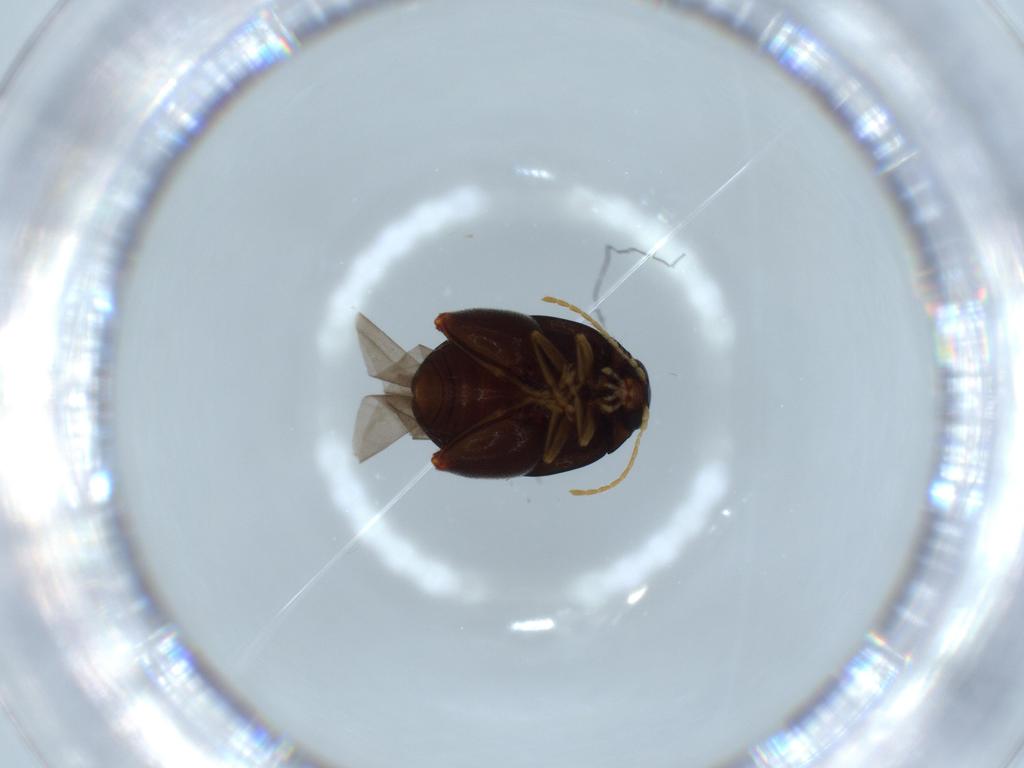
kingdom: Animalia
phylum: Arthropoda
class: Insecta
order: Coleoptera
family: Chrysomelidae
